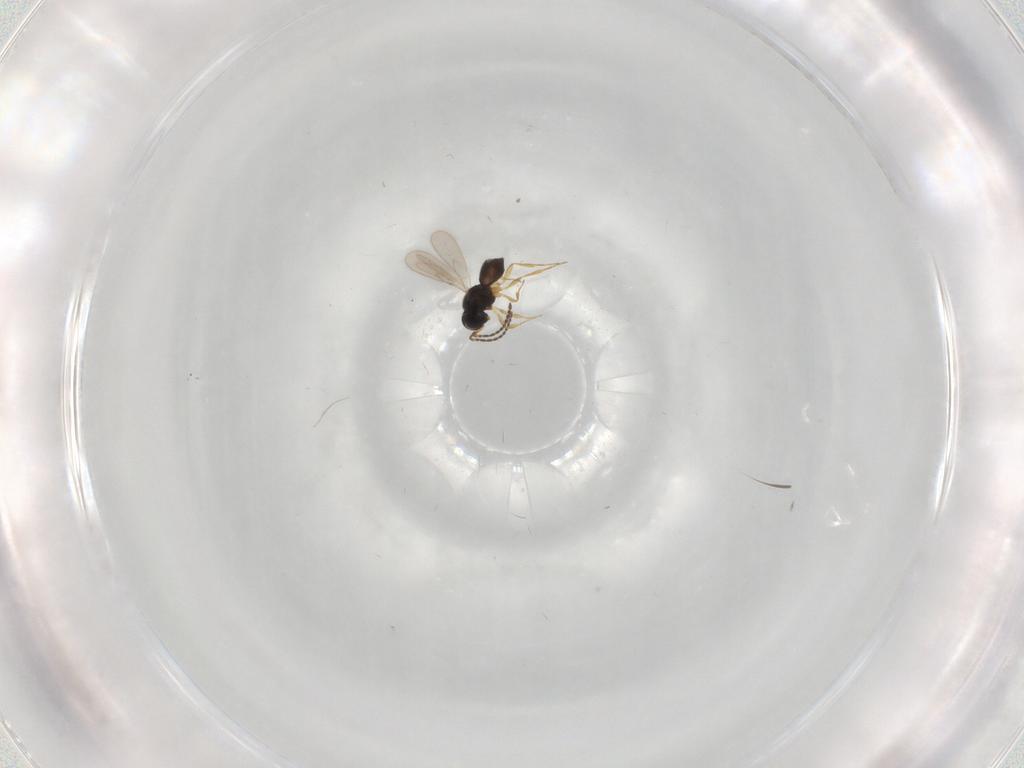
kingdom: Animalia
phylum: Arthropoda
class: Insecta
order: Hymenoptera
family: Scelionidae
